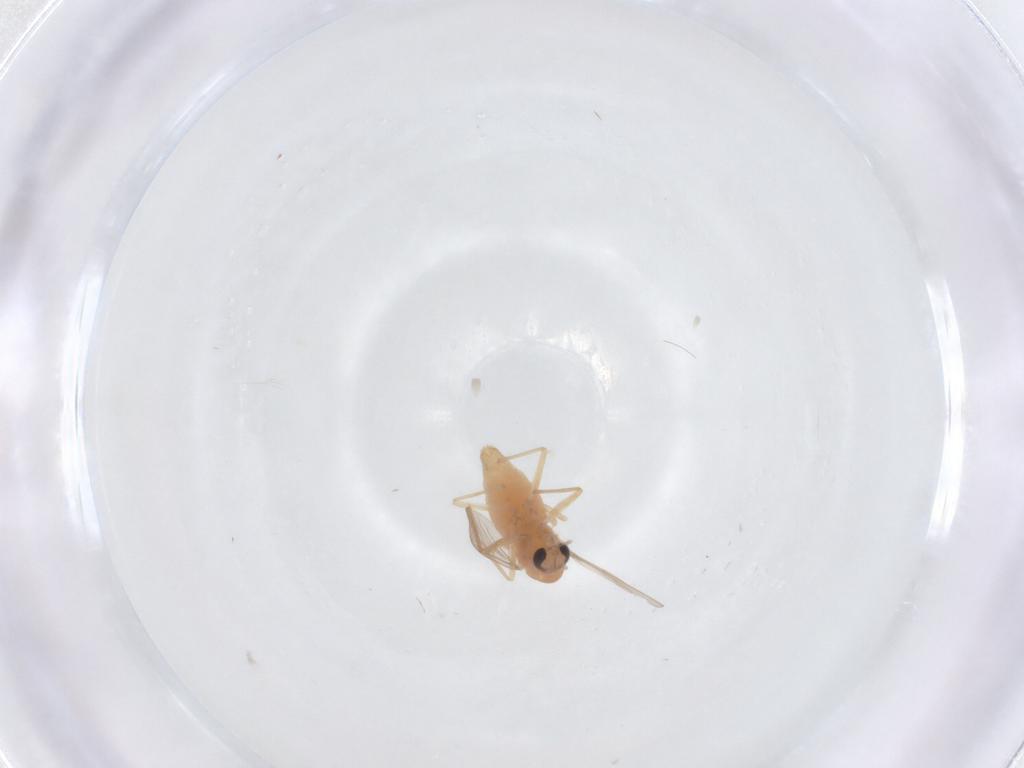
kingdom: Animalia
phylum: Arthropoda
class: Insecta
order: Diptera
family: Chironomidae
